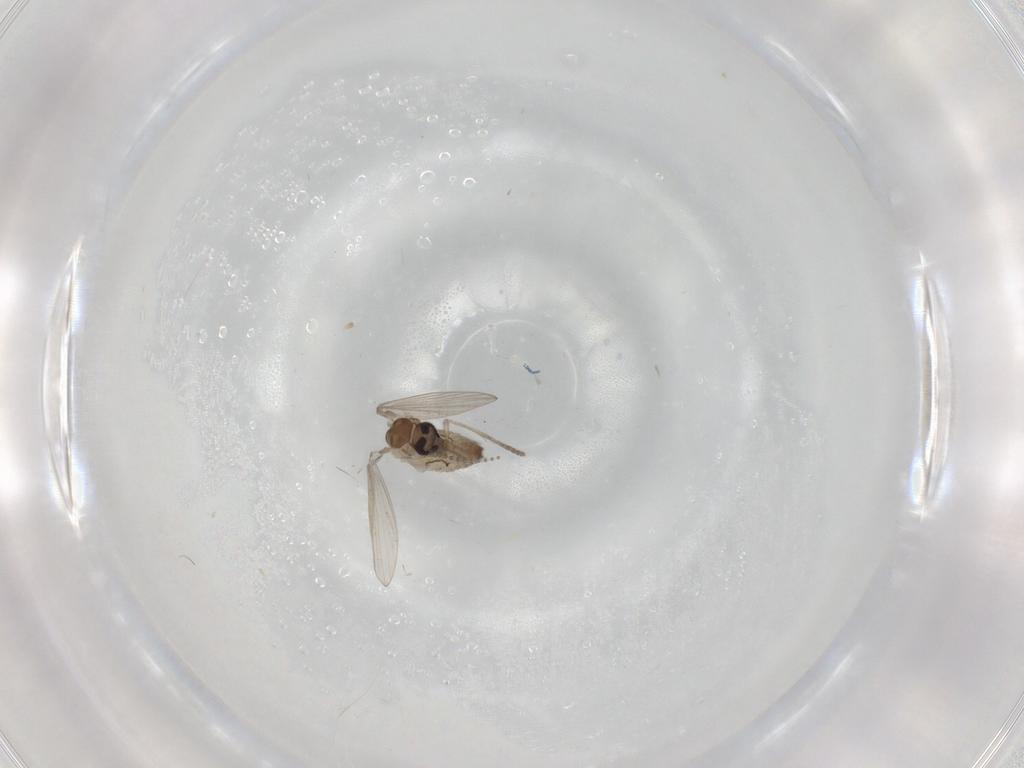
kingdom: Animalia
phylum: Arthropoda
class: Insecta
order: Diptera
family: Psychodidae
